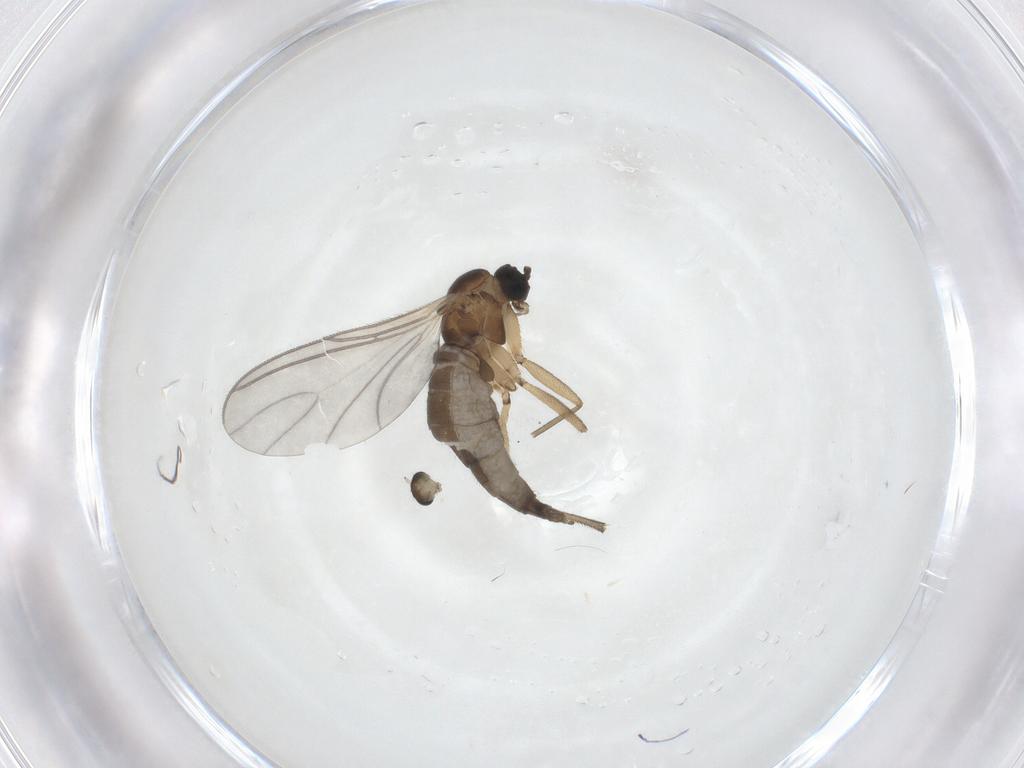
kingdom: Animalia
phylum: Arthropoda
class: Insecta
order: Diptera
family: Sciaridae
